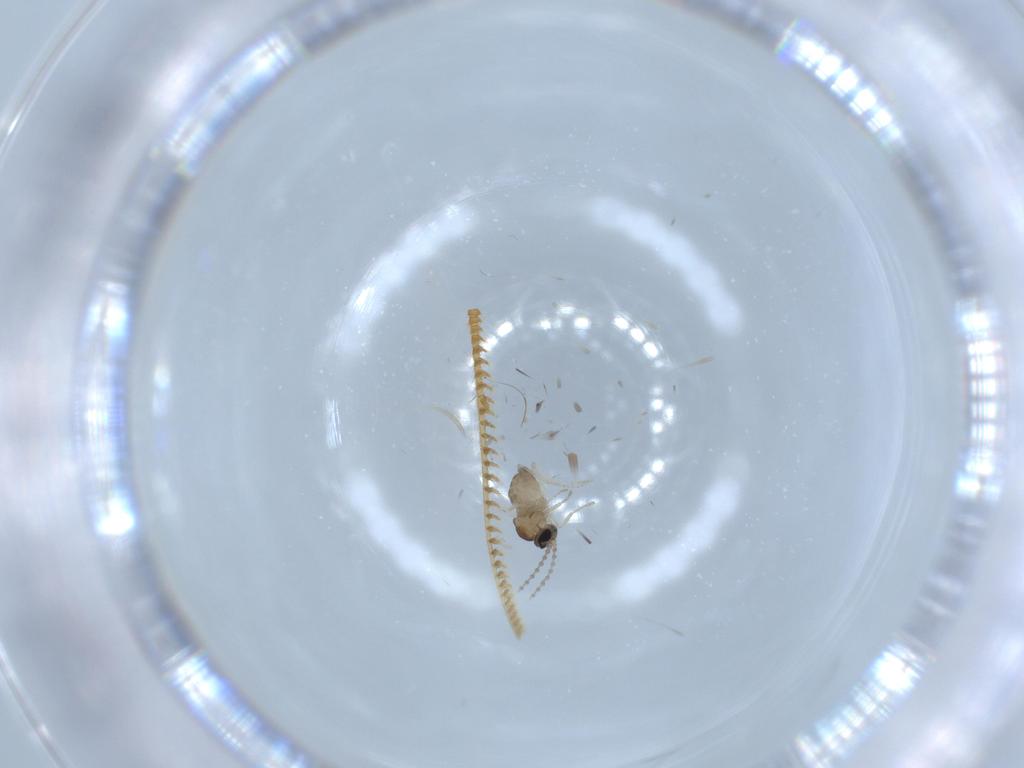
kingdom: Animalia
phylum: Arthropoda
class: Insecta
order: Diptera
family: Cecidomyiidae
